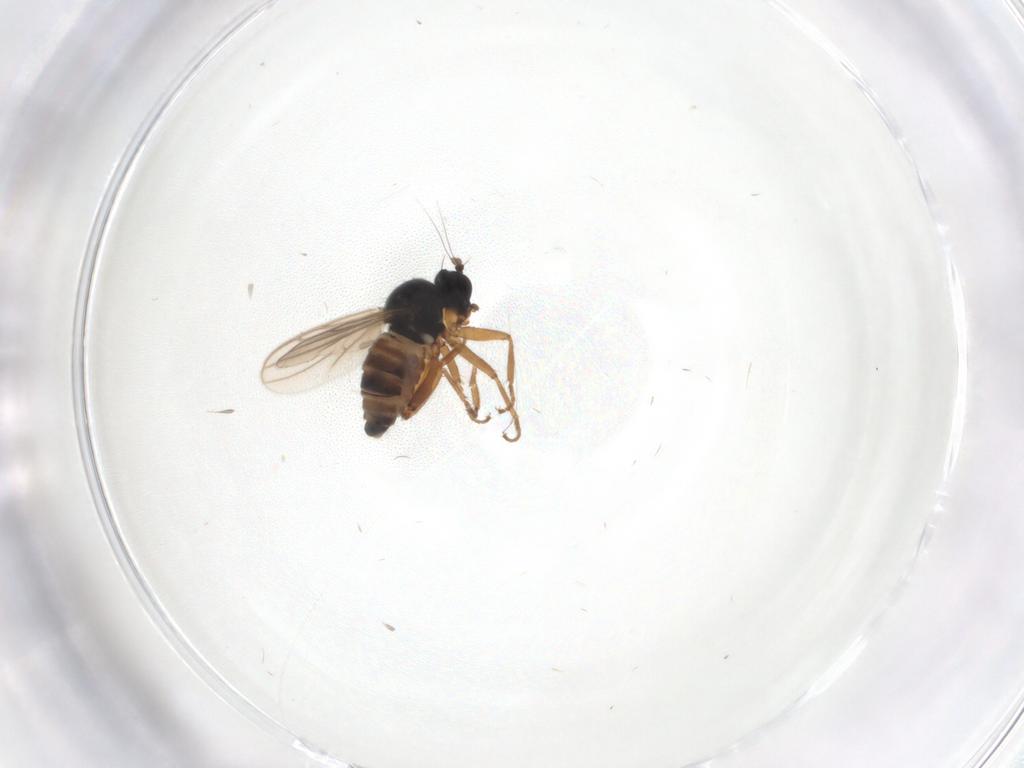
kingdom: Animalia
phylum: Arthropoda
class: Insecta
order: Diptera
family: Hybotidae
